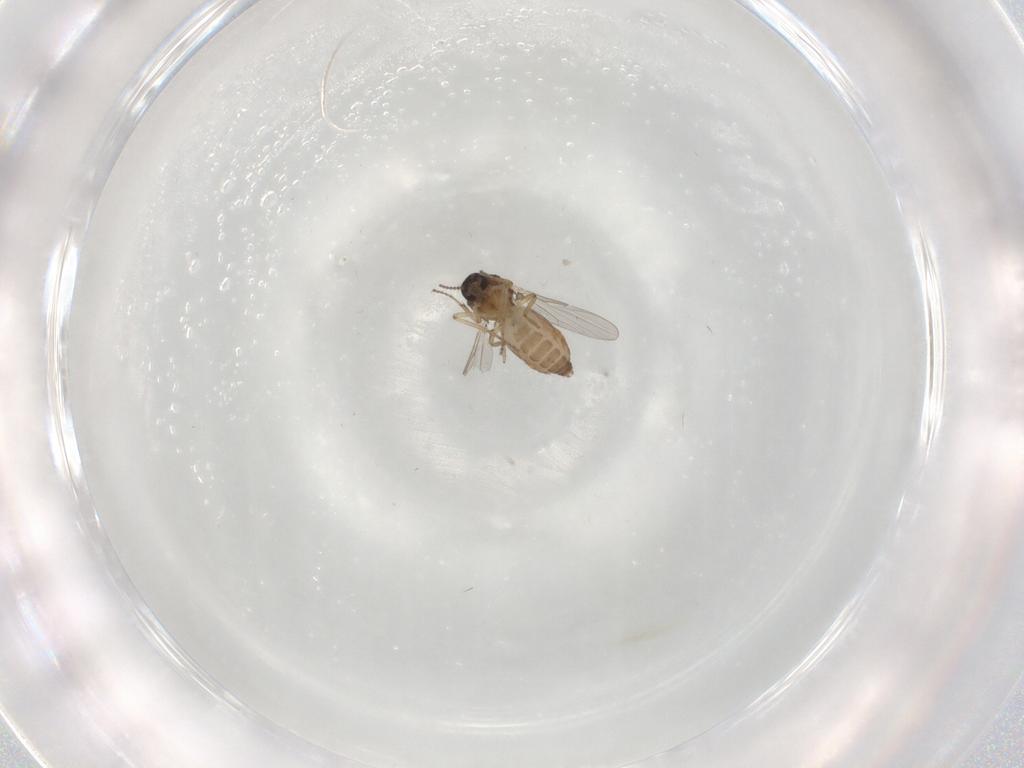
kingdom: Animalia
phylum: Arthropoda
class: Insecta
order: Diptera
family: Ceratopogonidae
